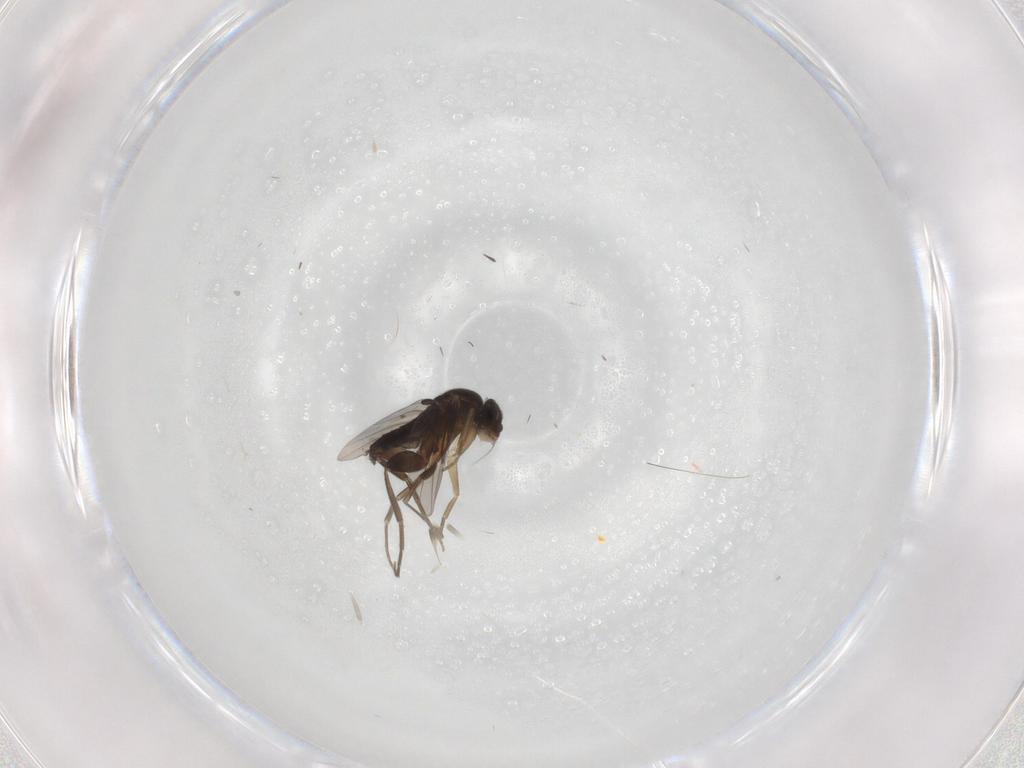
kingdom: Animalia
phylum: Arthropoda
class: Insecta
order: Diptera
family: Phoridae
